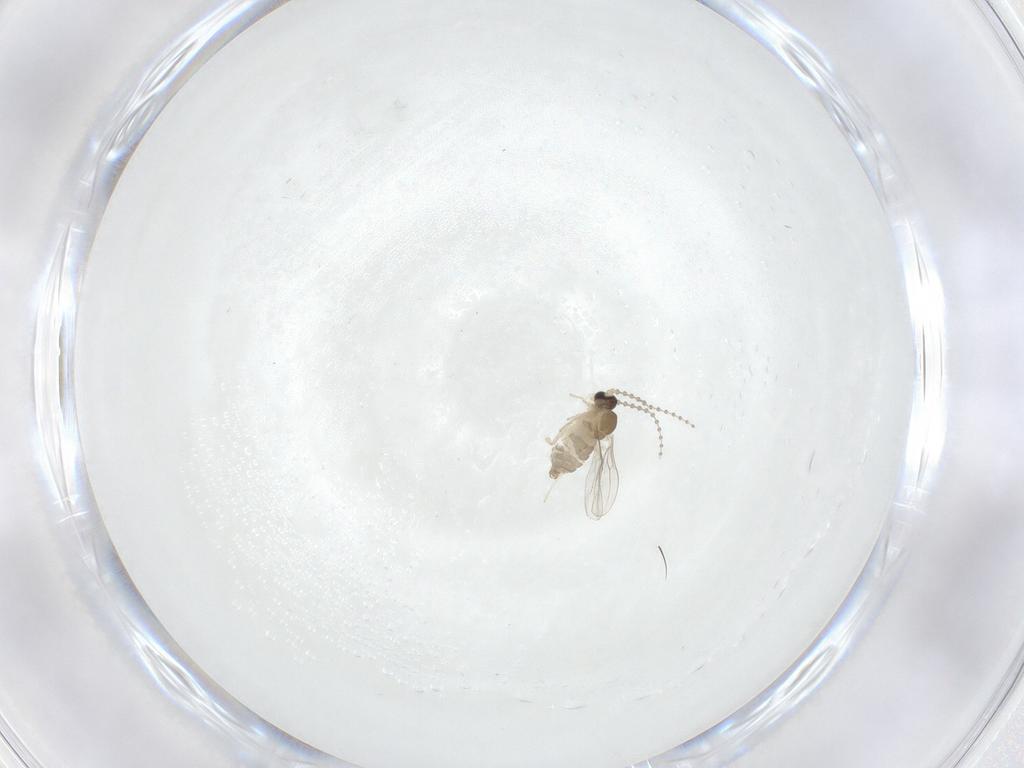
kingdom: Animalia
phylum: Arthropoda
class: Insecta
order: Diptera
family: Cecidomyiidae
